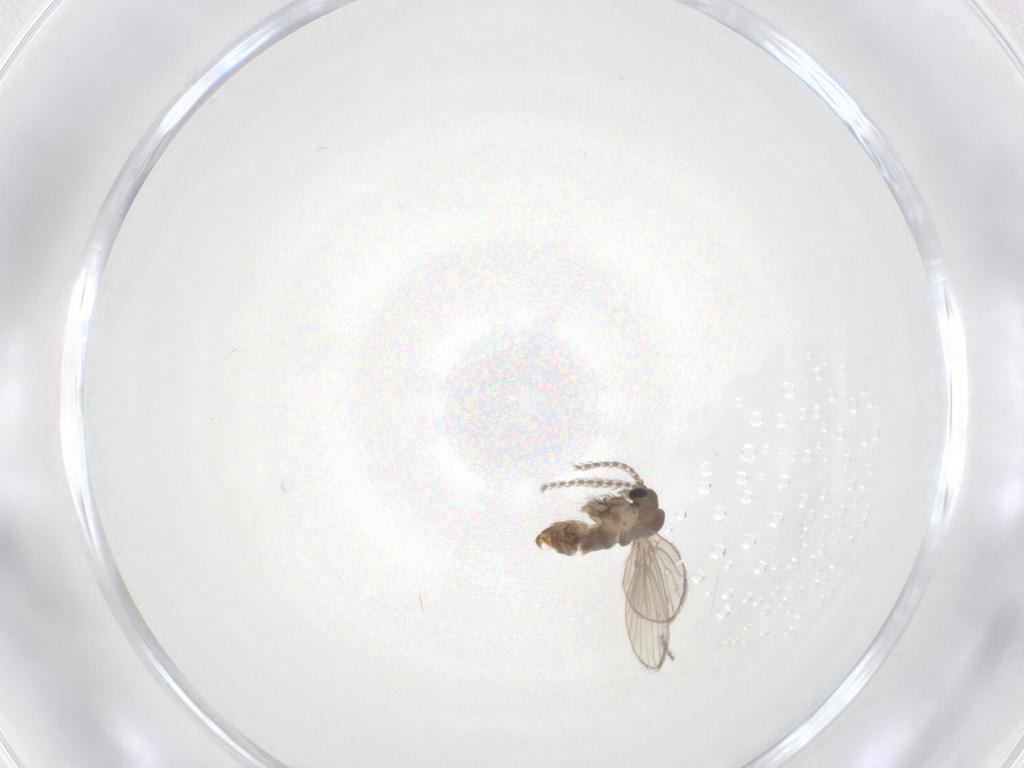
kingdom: Animalia
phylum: Arthropoda
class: Insecta
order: Diptera
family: Psychodidae
